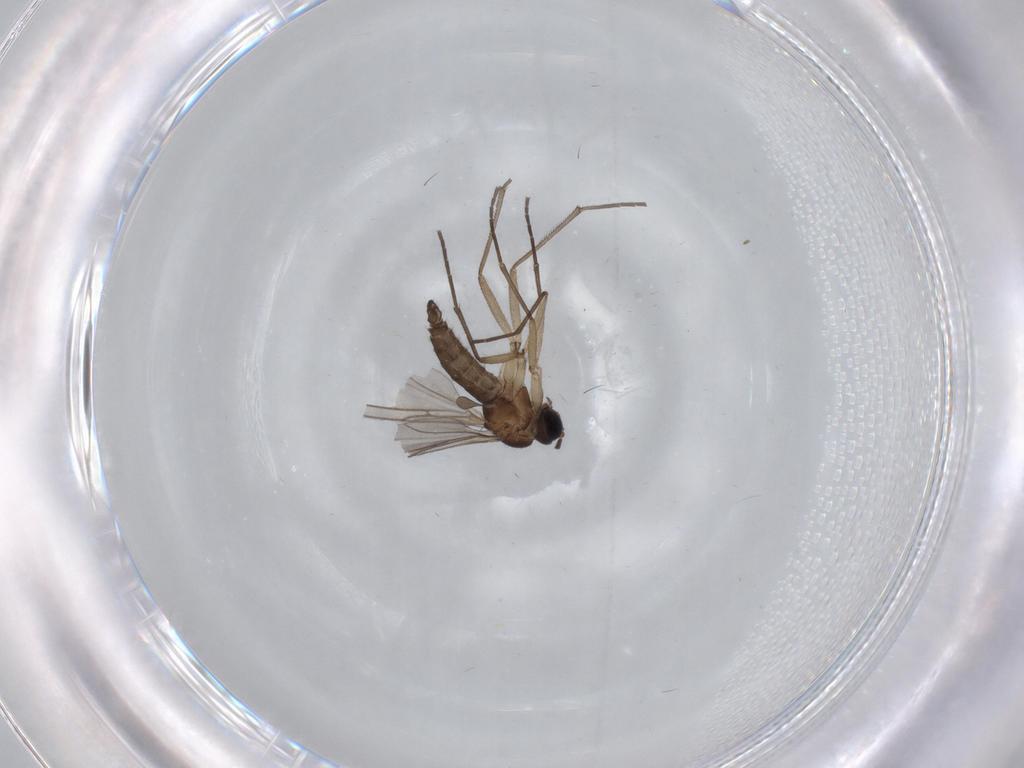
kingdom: Animalia
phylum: Arthropoda
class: Insecta
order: Diptera
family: Sciaridae
